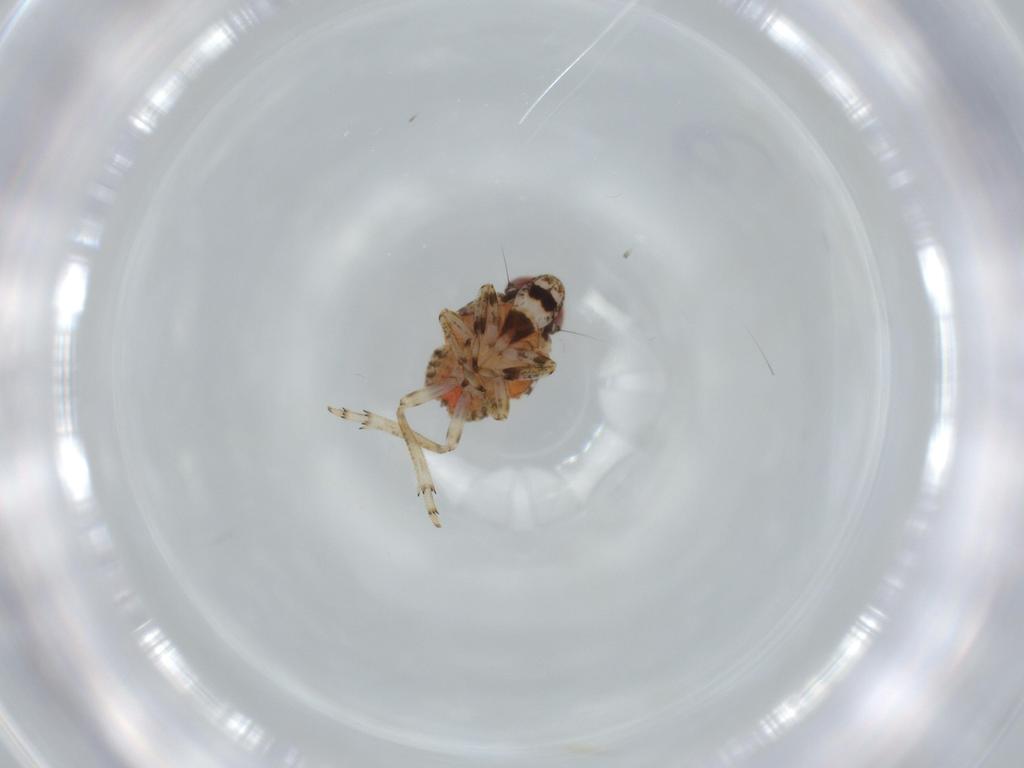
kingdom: Animalia
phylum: Arthropoda
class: Insecta
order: Hemiptera
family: Issidae
